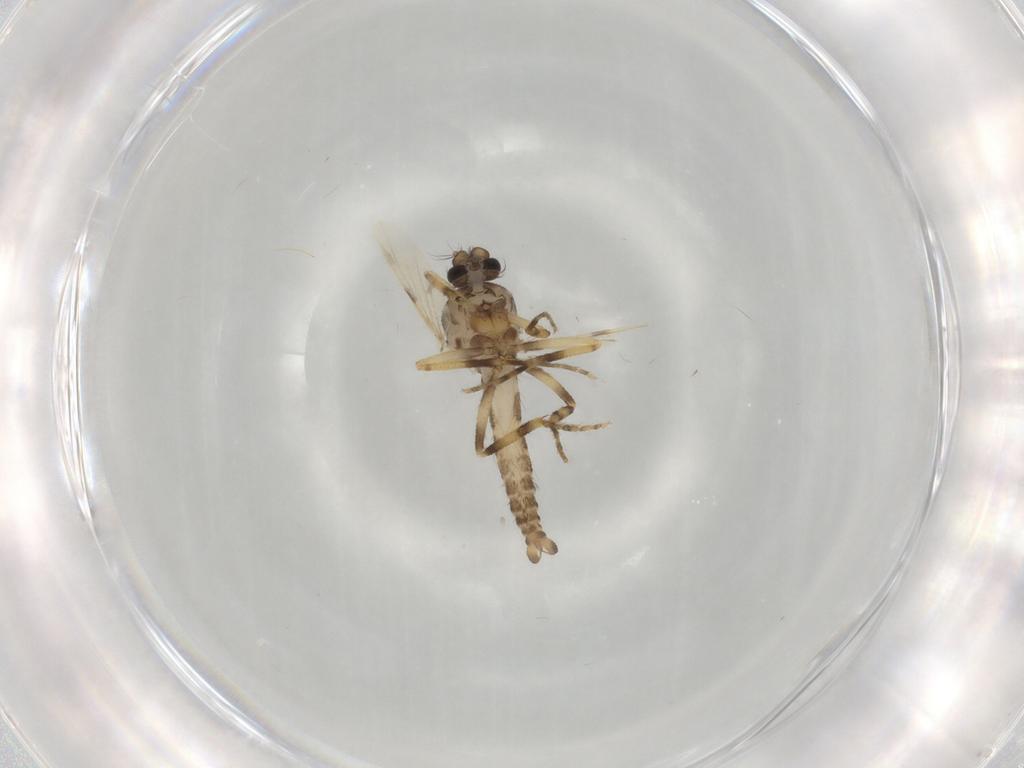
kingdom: Animalia
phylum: Arthropoda
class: Insecta
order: Diptera
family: Ceratopogonidae
